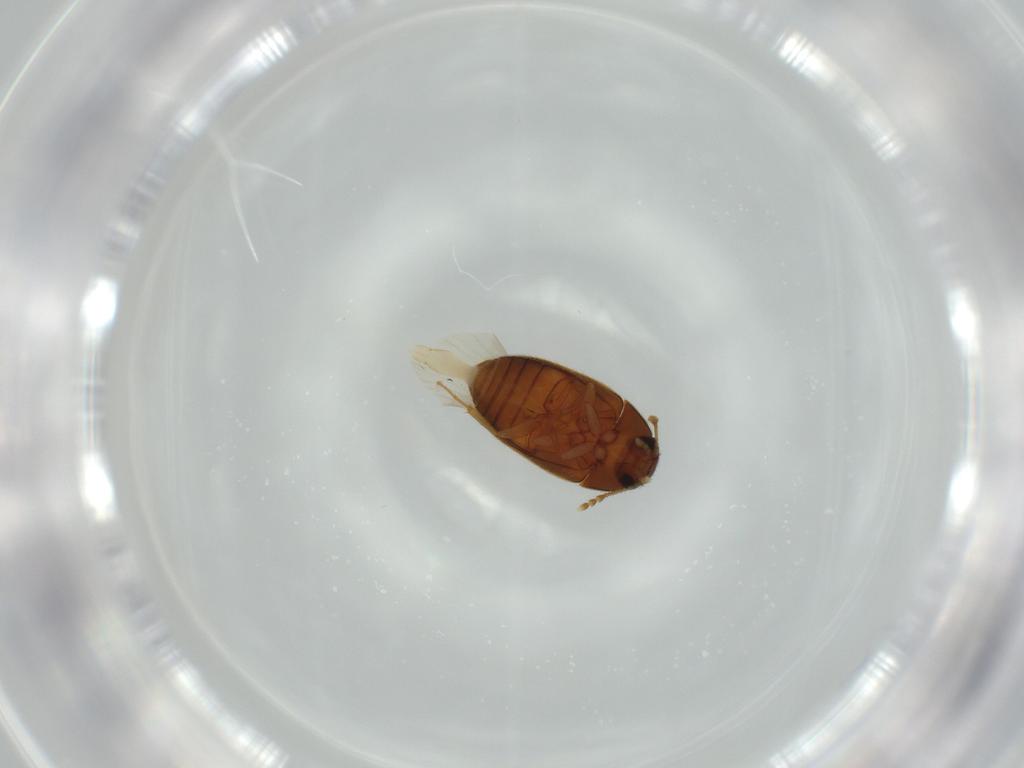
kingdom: Animalia
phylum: Arthropoda
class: Insecta
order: Coleoptera
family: Mycetophagidae
